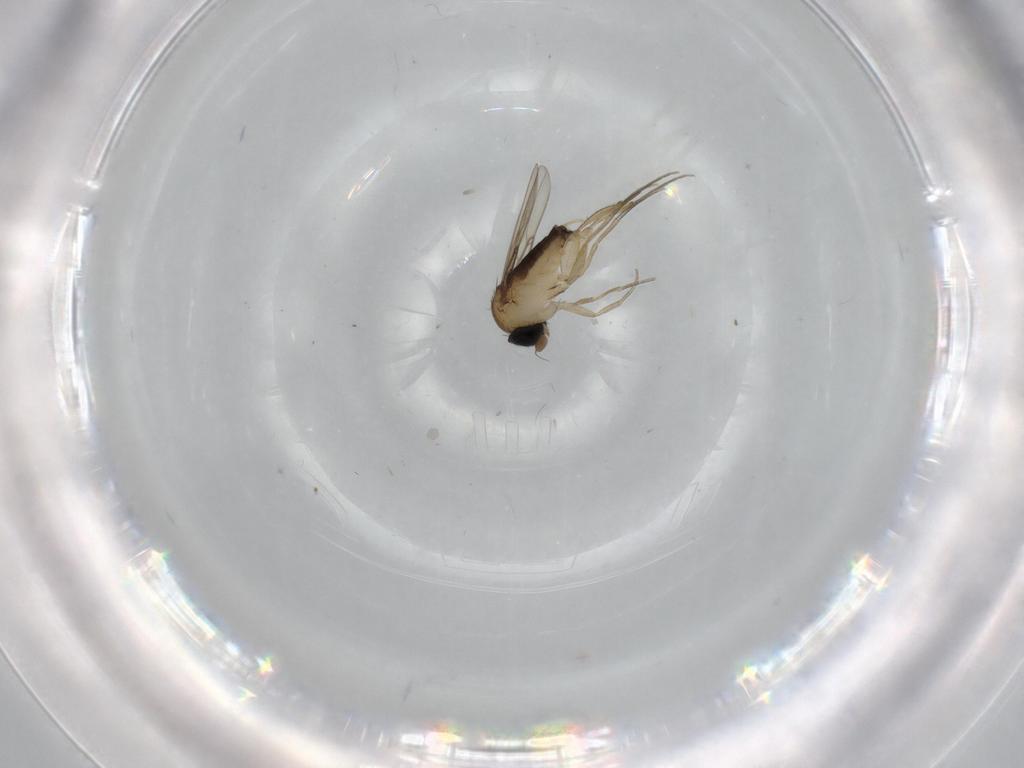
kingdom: Animalia
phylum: Arthropoda
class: Insecta
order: Diptera
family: Phoridae
